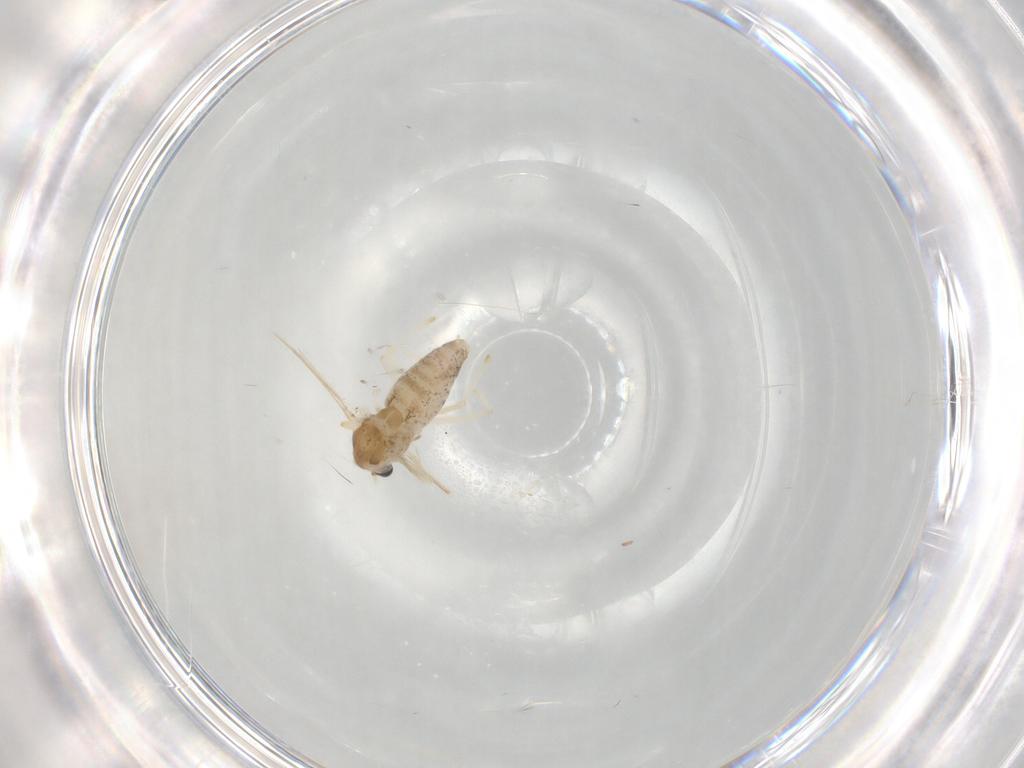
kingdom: Animalia
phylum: Arthropoda
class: Insecta
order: Diptera
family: Chironomidae
